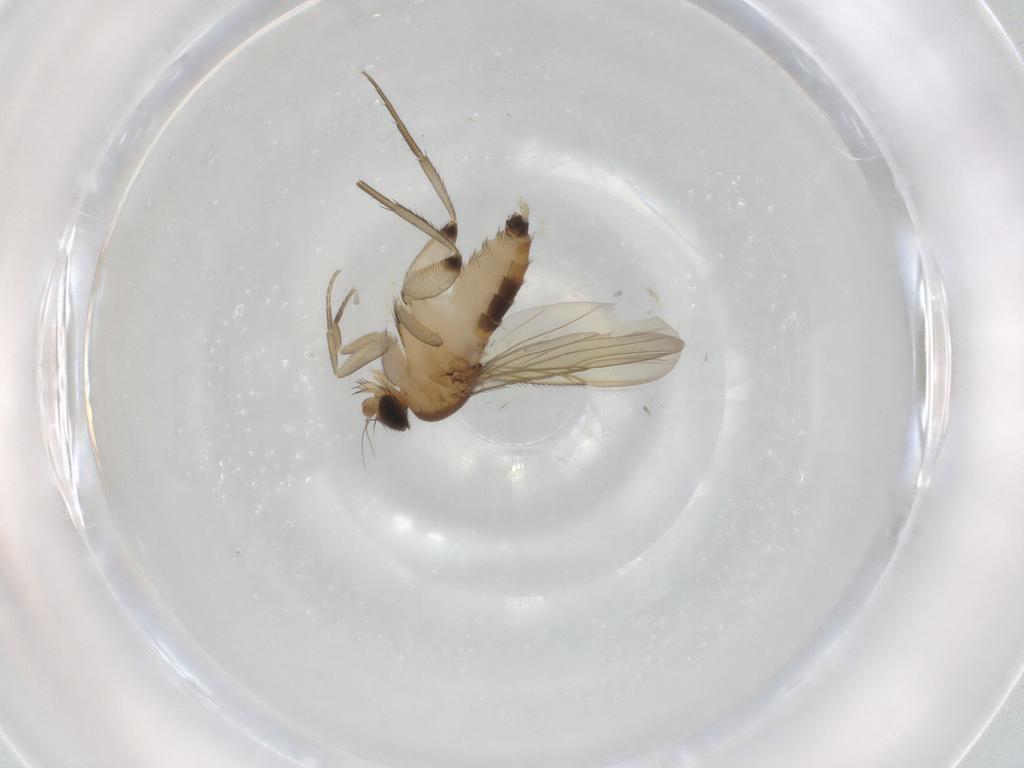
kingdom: Animalia
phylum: Arthropoda
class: Insecta
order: Diptera
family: Phoridae
